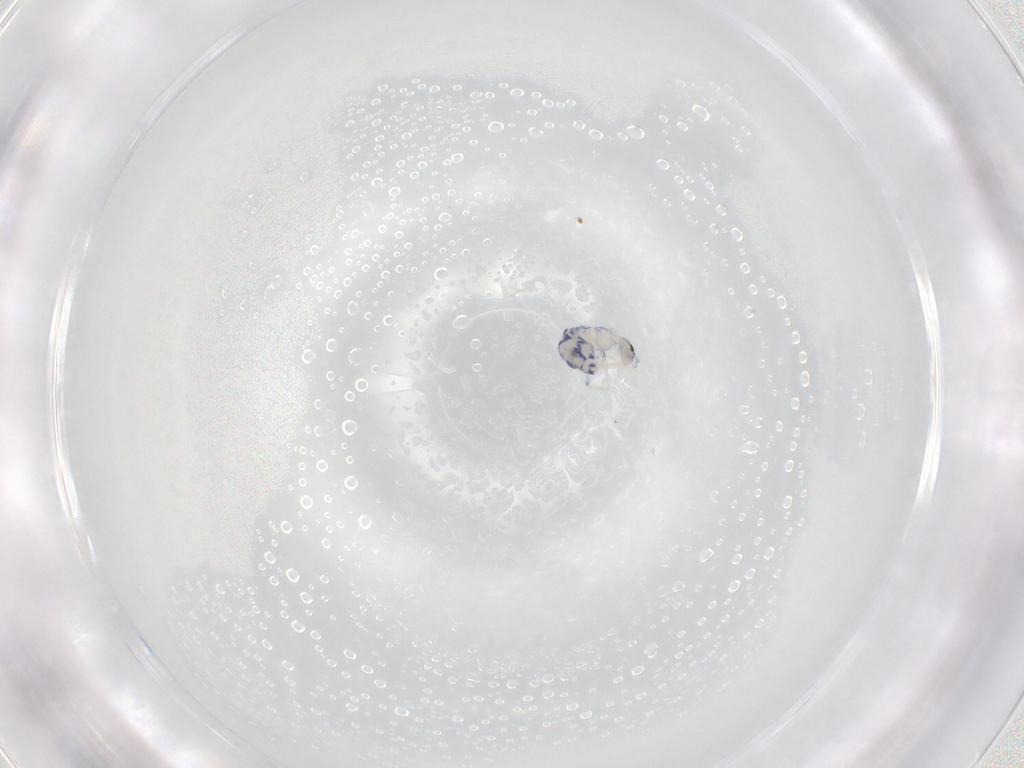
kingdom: Animalia
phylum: Arthropoda
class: Collembola
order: Entomobryomorpha
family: Entomobryidae
